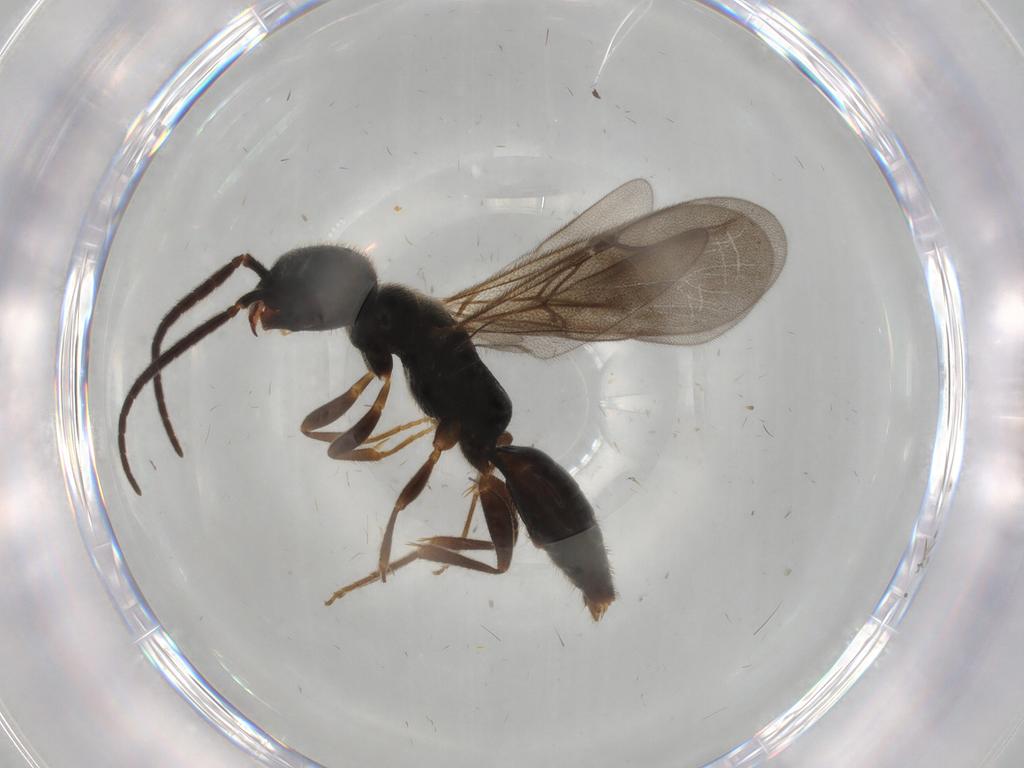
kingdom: Animalia
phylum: Arthropoda
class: Insecta
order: Hymenoptera
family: Bethylidae
